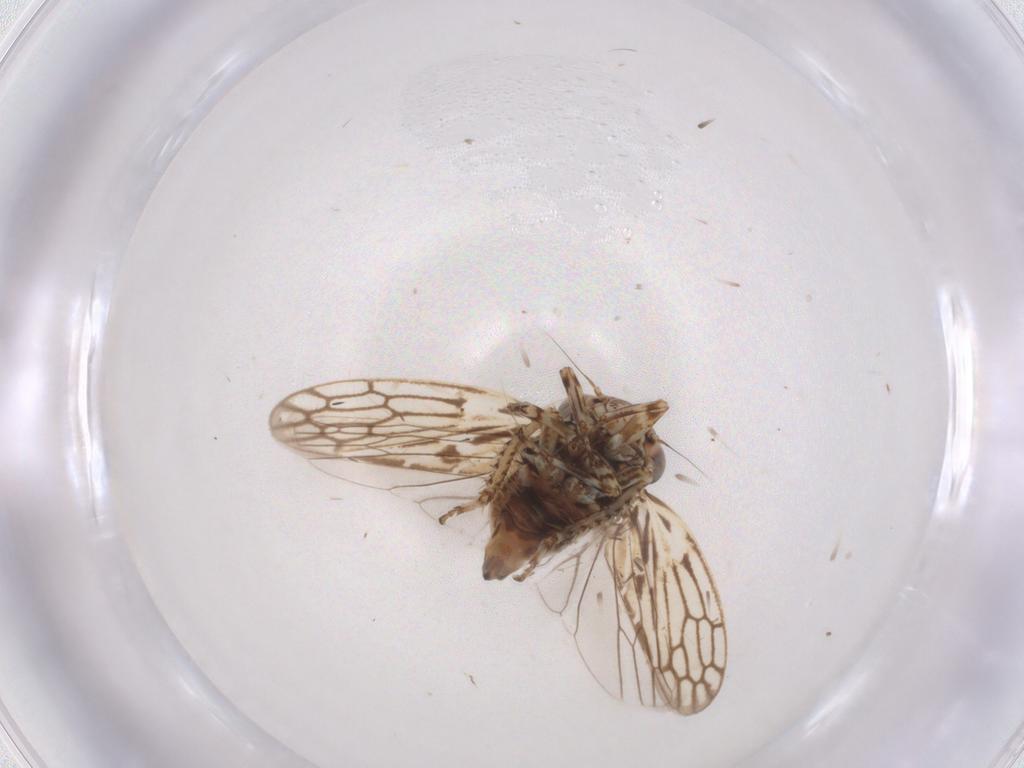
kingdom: Animalia
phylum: Arthropoda
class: Insecta
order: Hemiptera
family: Cicadellidae
